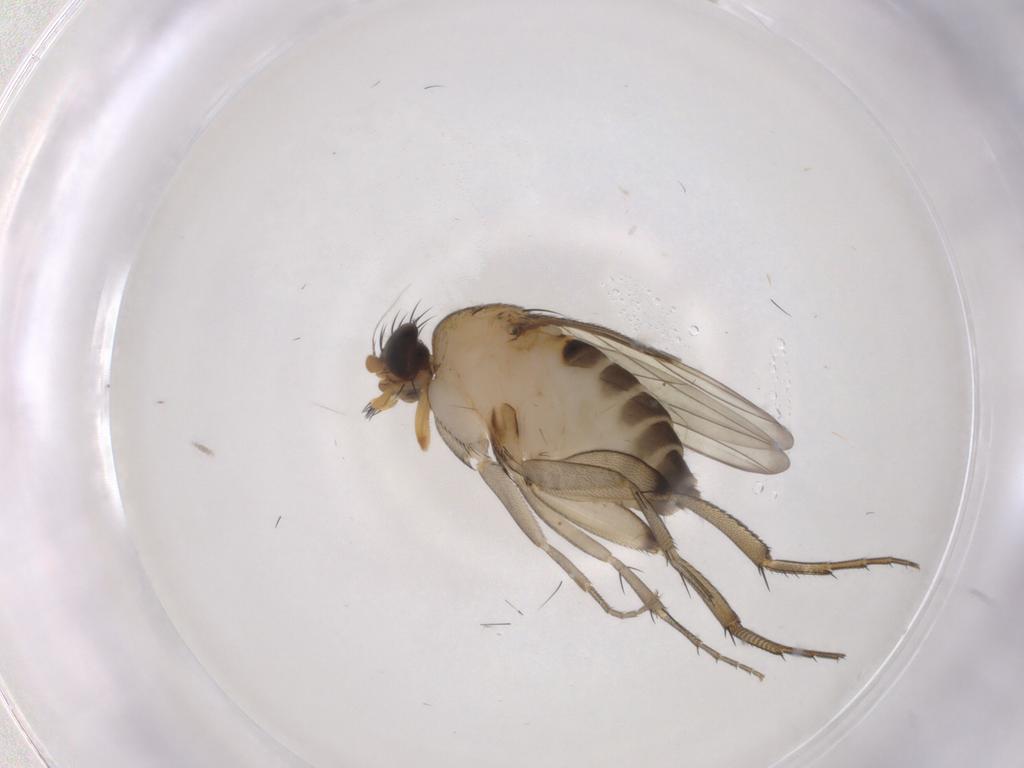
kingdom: Animalia
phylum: Arthropoda
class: Insecta
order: Diptera
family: Phoridae
